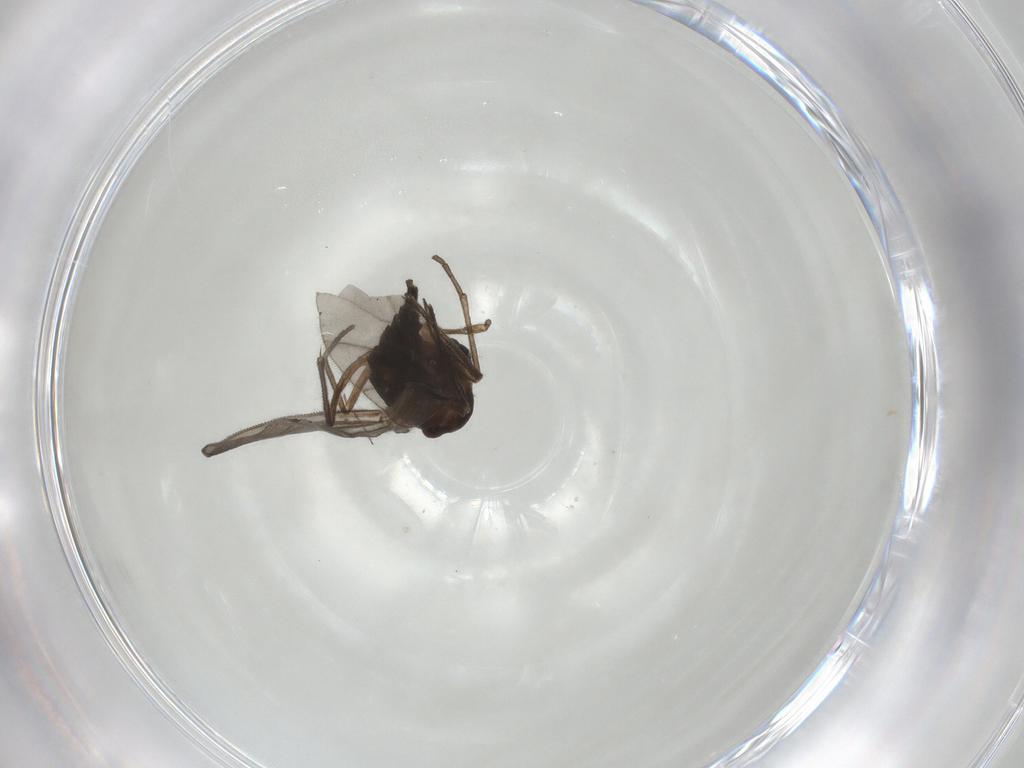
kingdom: Animalia
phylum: Arthropoda
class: Insecta
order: Diptera
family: Sciaridae
